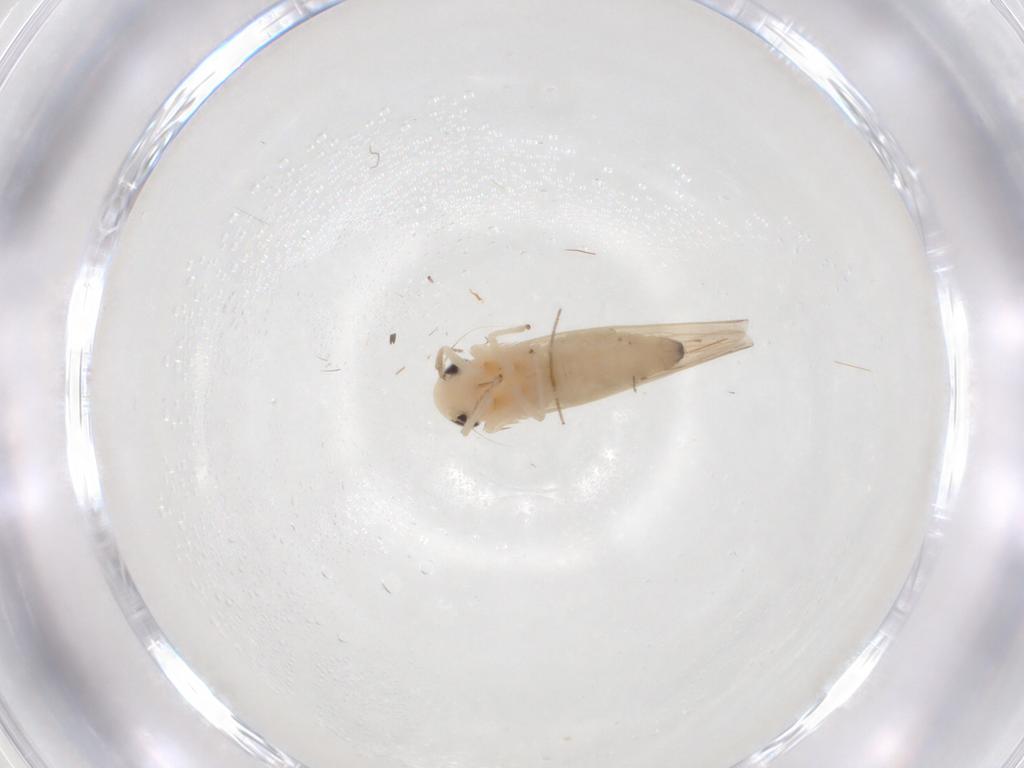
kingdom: Animalia
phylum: Arthropoda
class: Insecta
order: Hemiptera
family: Cicadellidae
